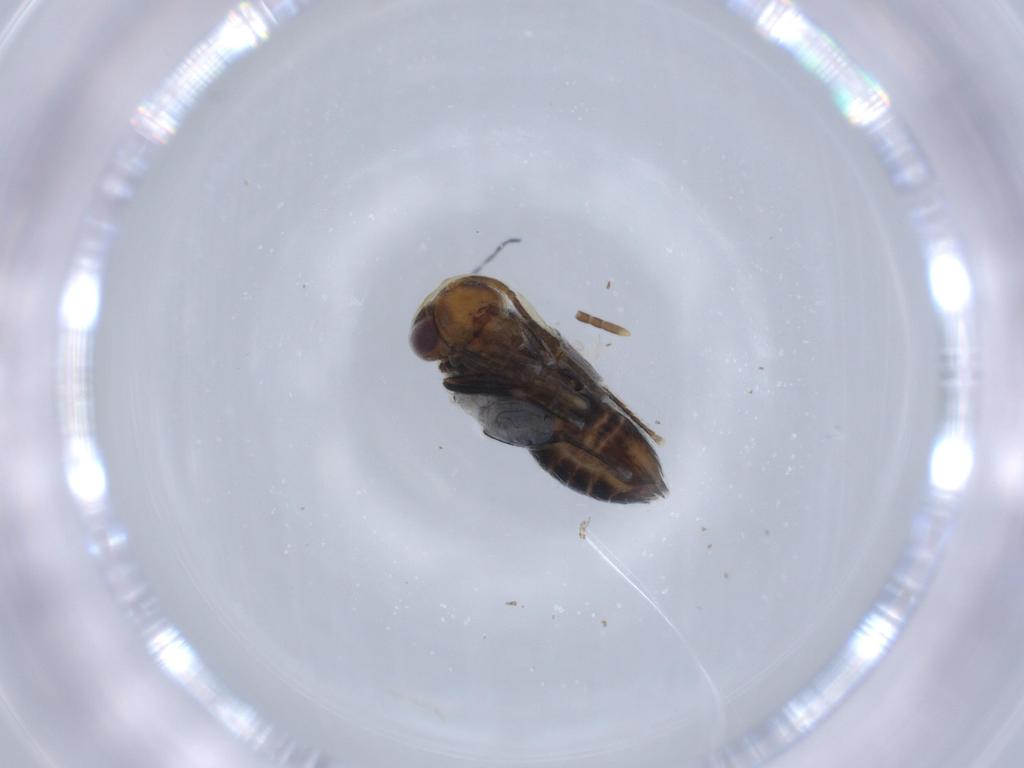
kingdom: Animalia
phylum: Arthropoda
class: Insecta
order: Hymenoptera
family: Encyrtidae
